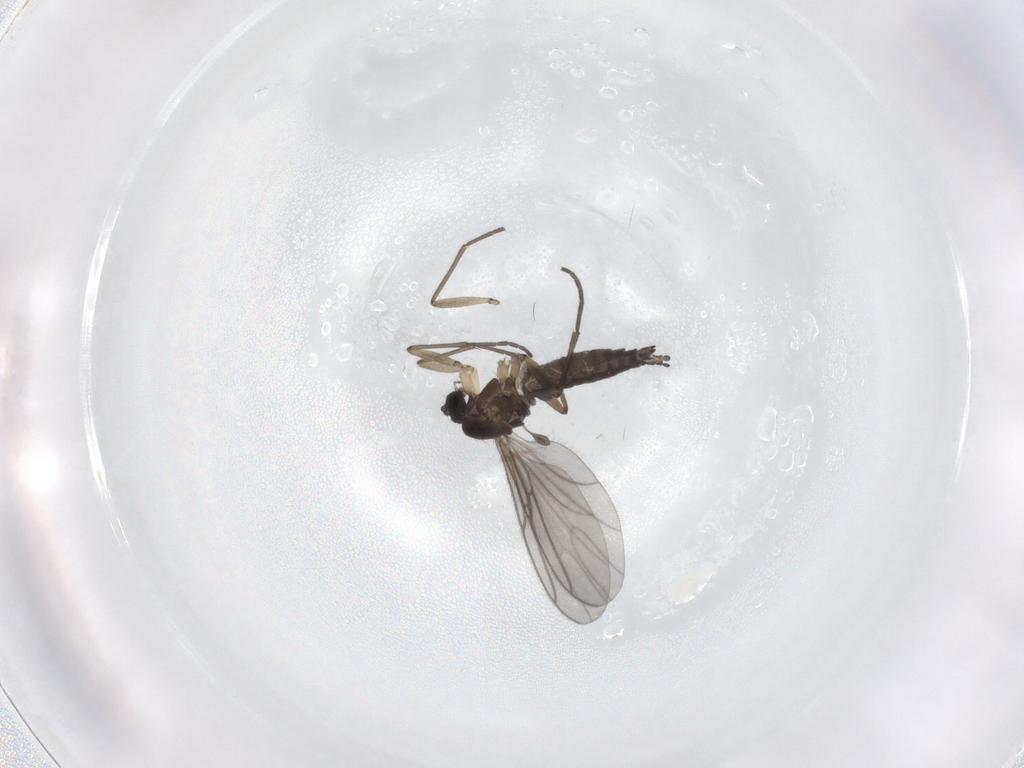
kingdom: Animalia
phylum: Arthropoda
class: Insecta
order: Diptera
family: Sciaridae
